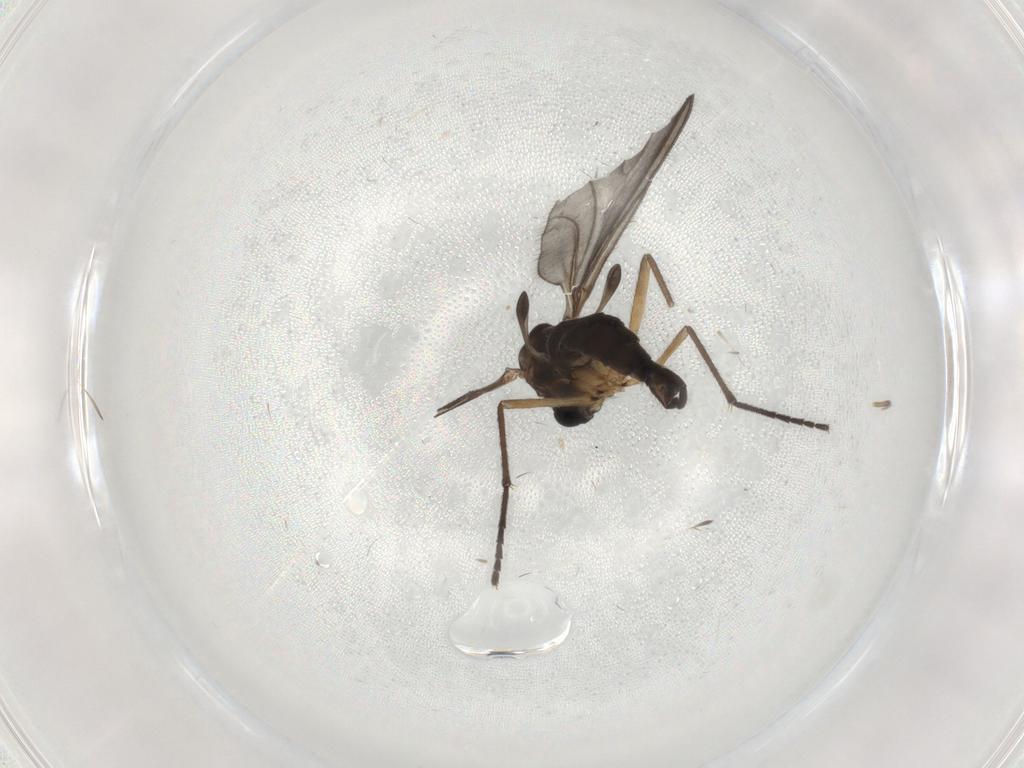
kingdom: Animalia
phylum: Arthropoda
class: Insecta
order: Diptera
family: Sciaridae
